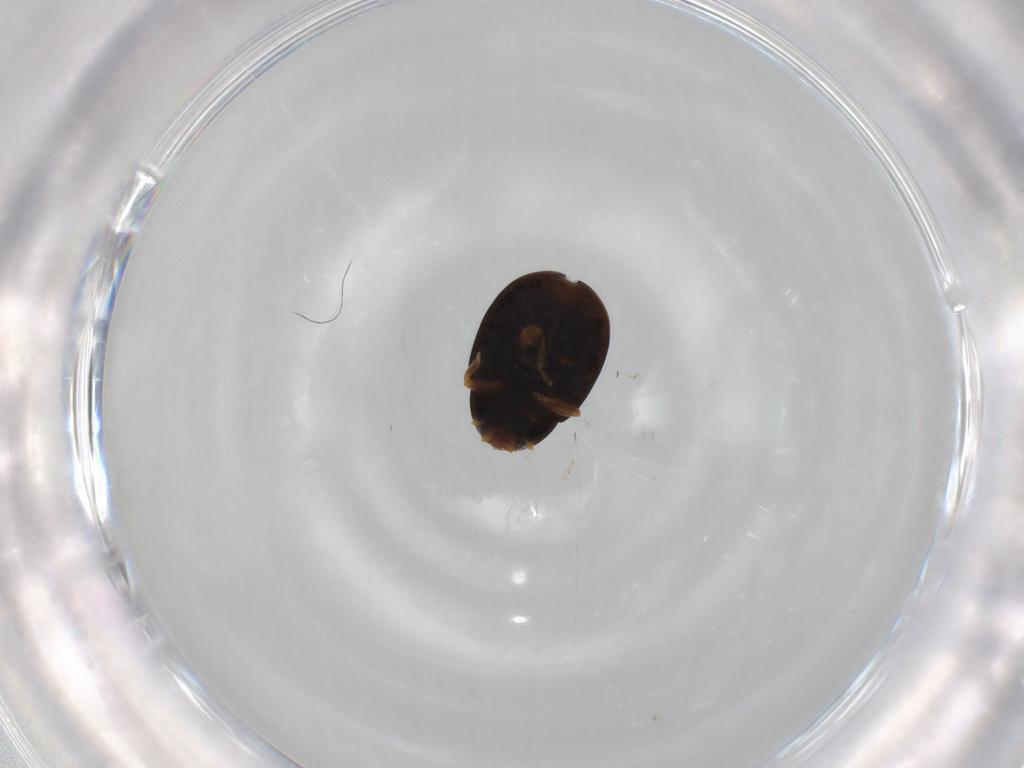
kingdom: Animalia
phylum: Arthropoda
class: Insecta
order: Coleoptera
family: Coccinellidae
